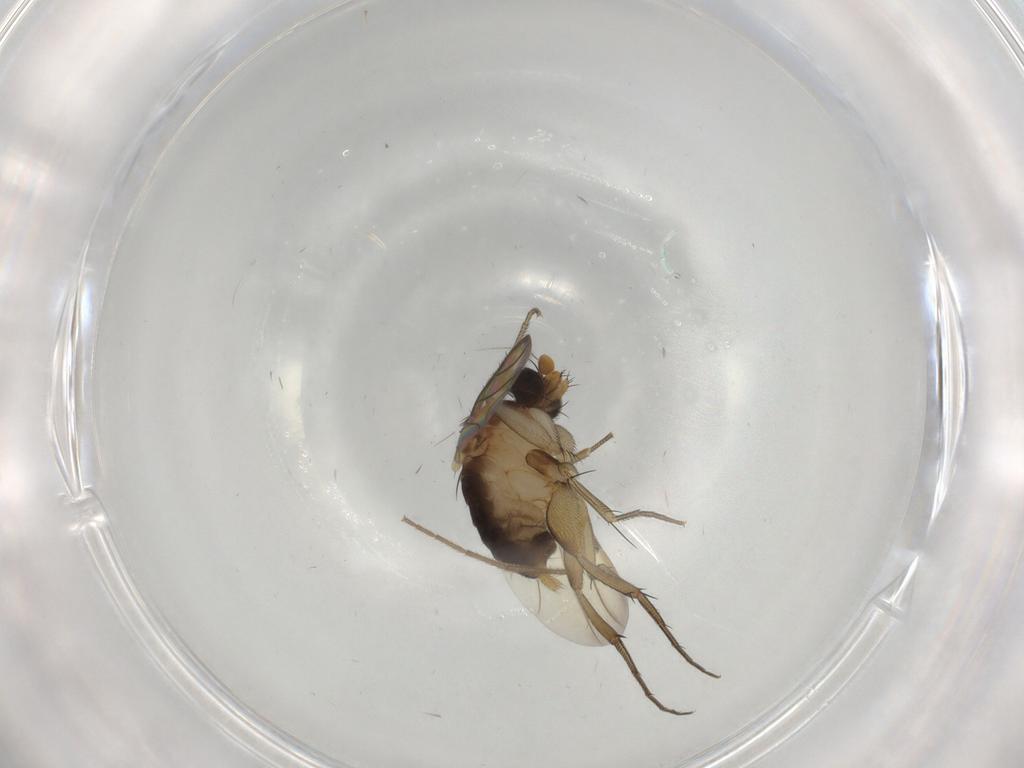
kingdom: Animalia
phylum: Arthropoda
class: Insecta
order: Diptera
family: Phoridae
